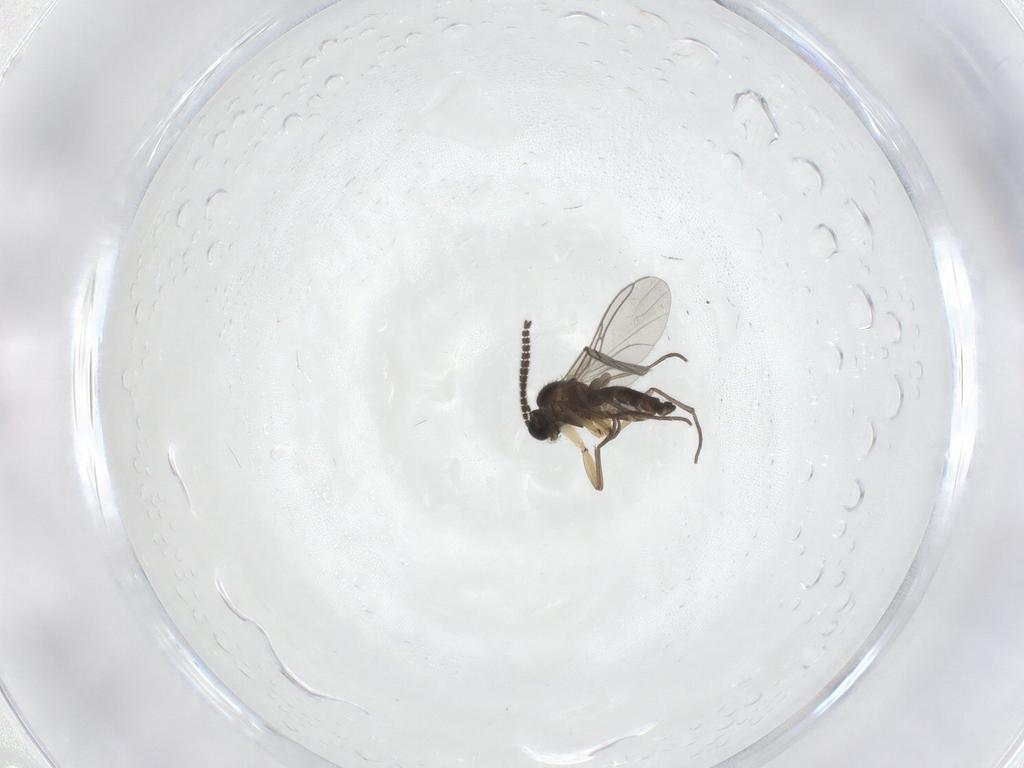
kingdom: Animalia
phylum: Arthropoda
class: Insecta
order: Diptera
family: Sciaridae
